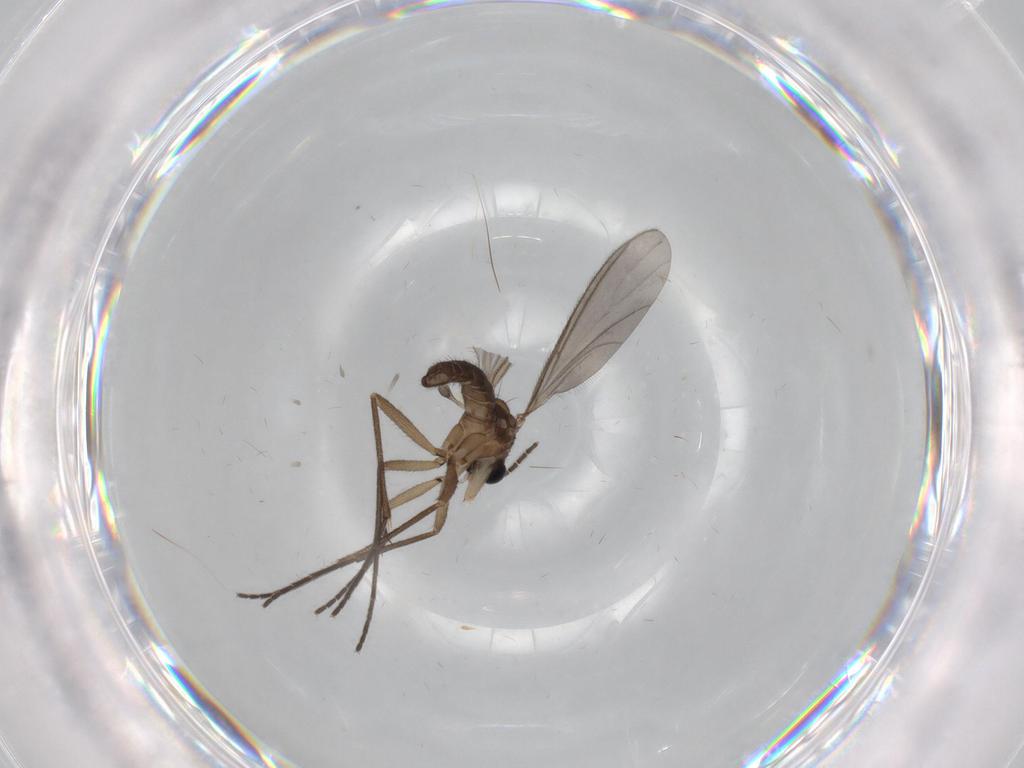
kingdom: Animalia
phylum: Arthropoda
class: Insecta
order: Diptera
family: Sciaridae
